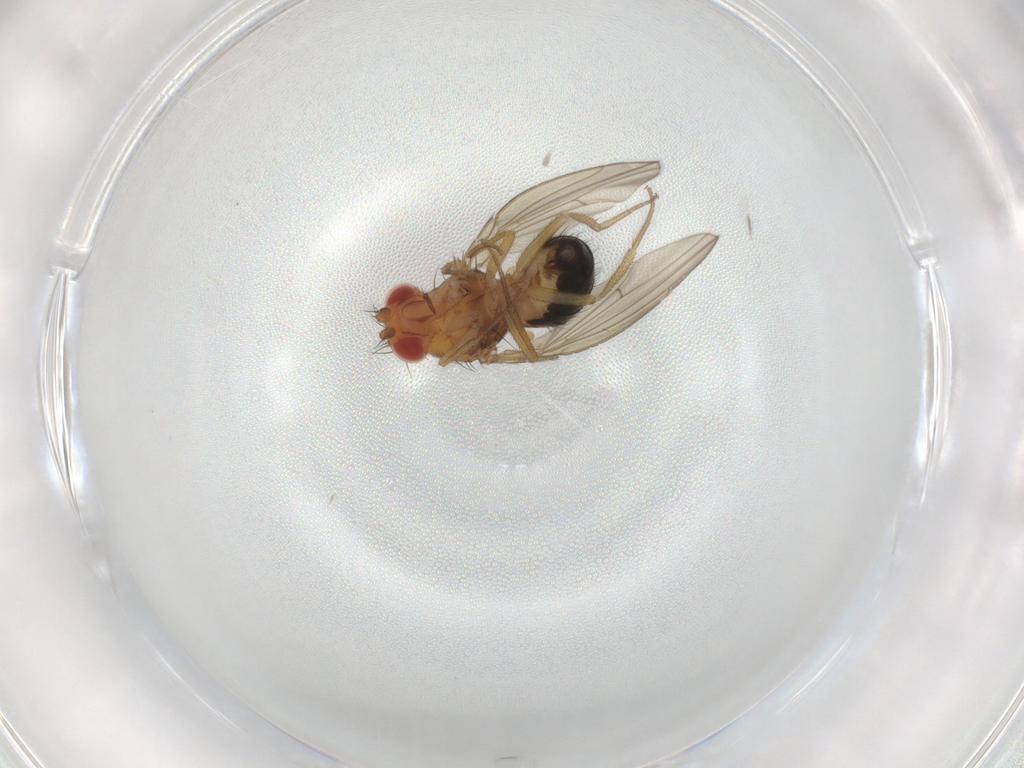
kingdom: Animalia
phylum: Arthropoda
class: Insecta
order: Diptera
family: Drosophilidae
